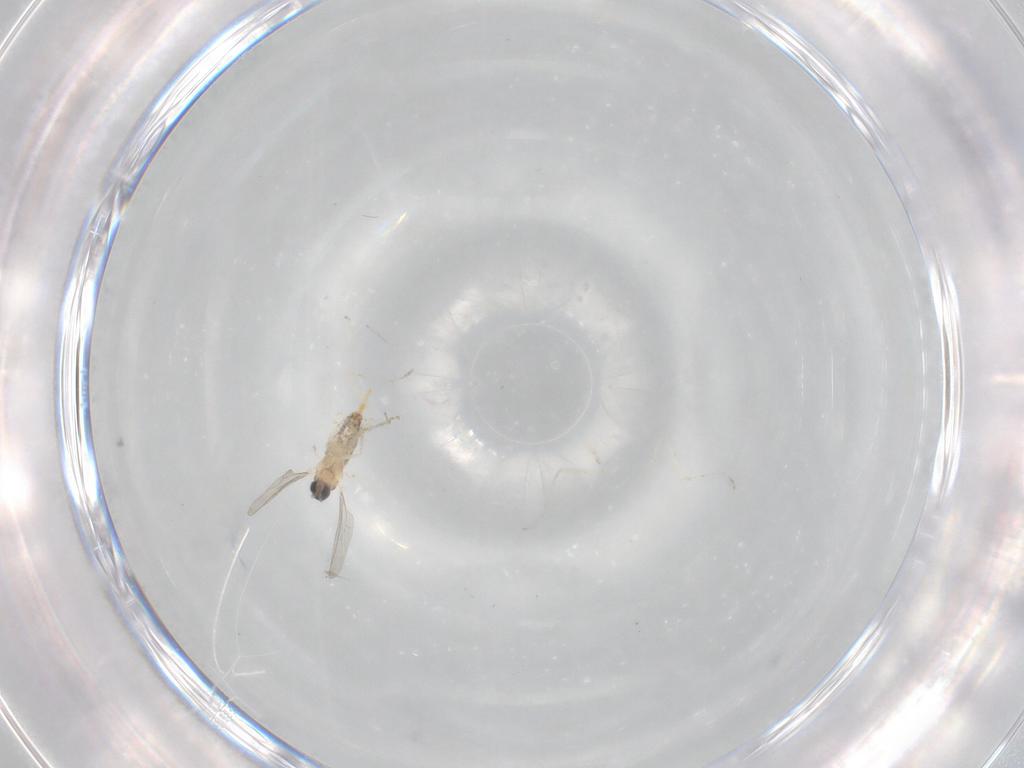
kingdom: Animalia
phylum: Arthropoda
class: Insecta
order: Diptera
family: Cecidomyiidae
